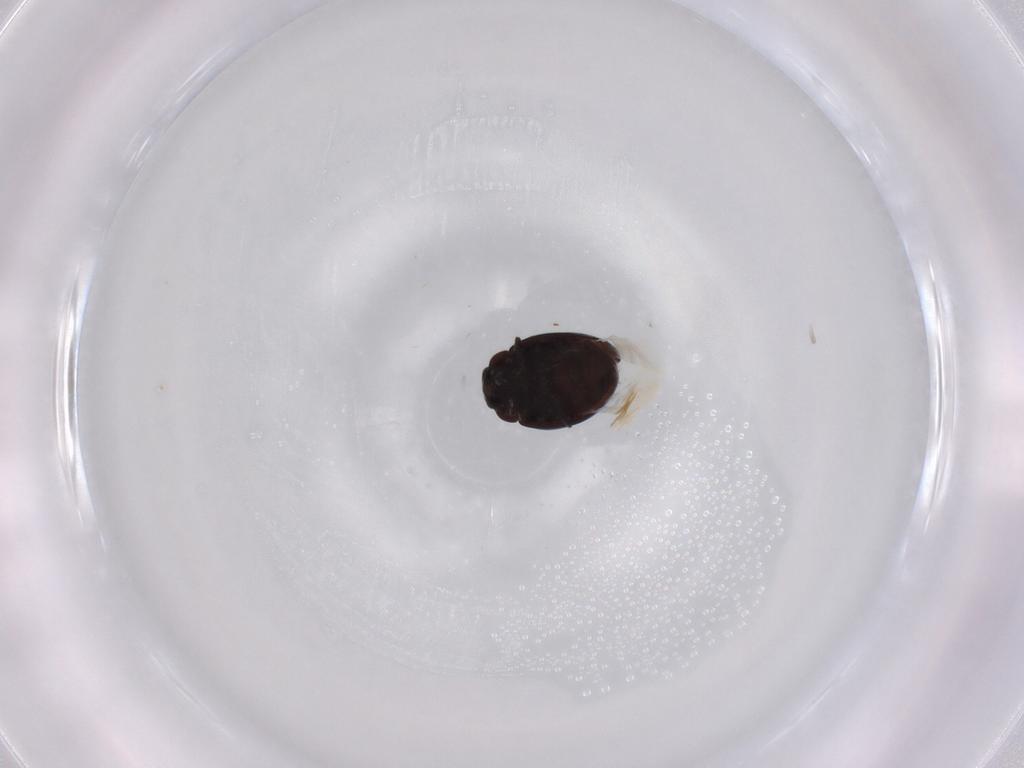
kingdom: Animalia
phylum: Arthropoda
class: Insecta
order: Coleoptera
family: Coccinellidae
